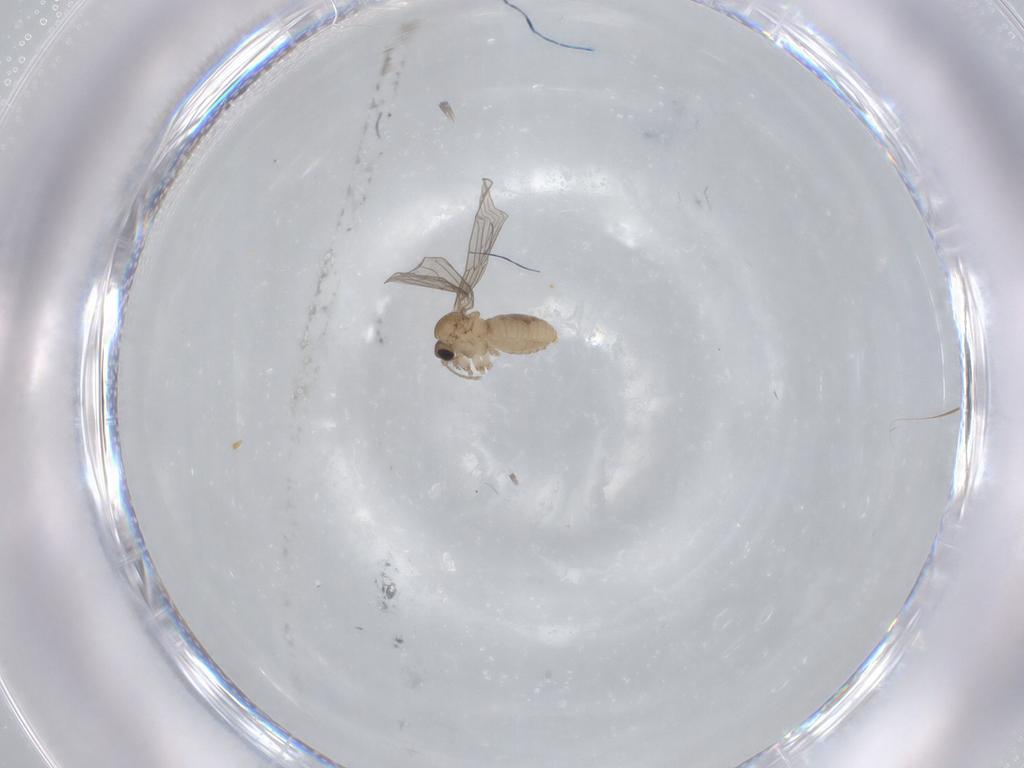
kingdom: Animalia
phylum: Arthropoda
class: Insecta
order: Diptera
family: Psychodidae
